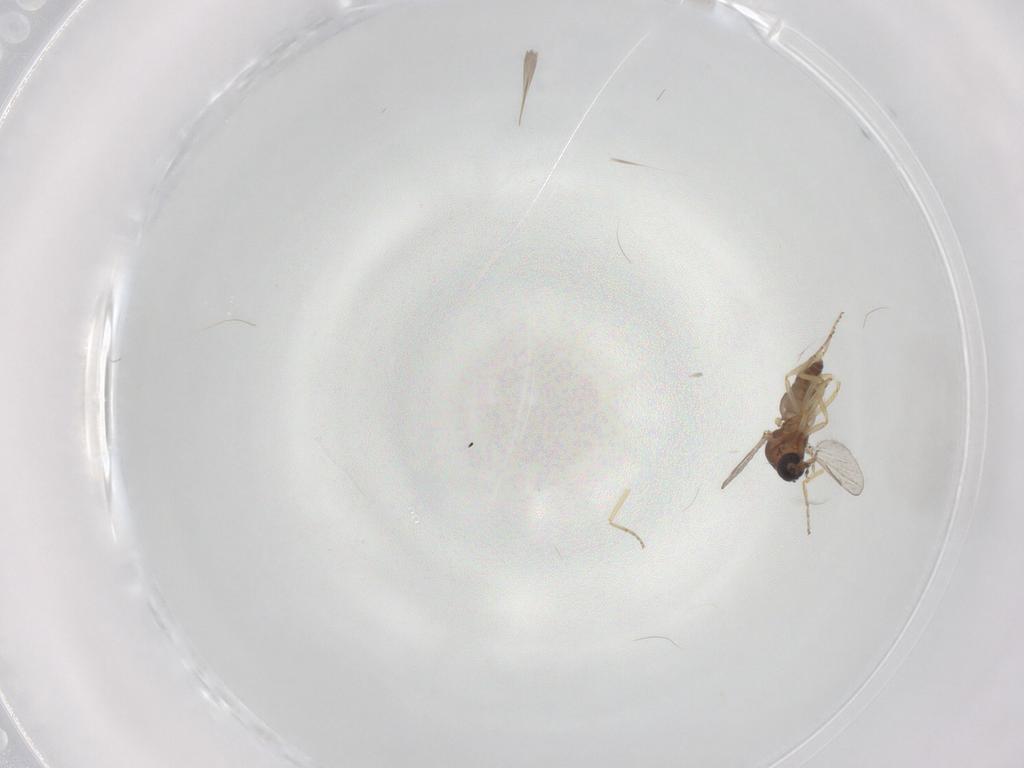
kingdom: Animalia
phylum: Arthropoda
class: Insecta
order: Diptera
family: Ceratopogonidae
